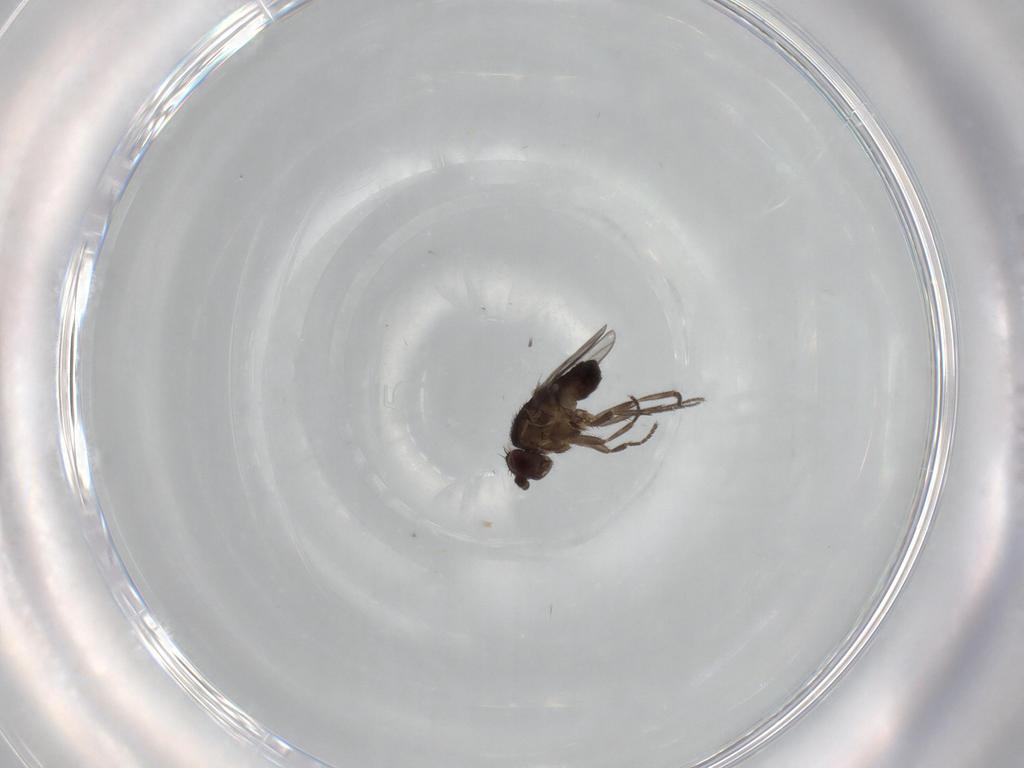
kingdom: Animalia
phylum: Arthropoda
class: Insecta
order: Diptera
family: Sphaeroceridae
